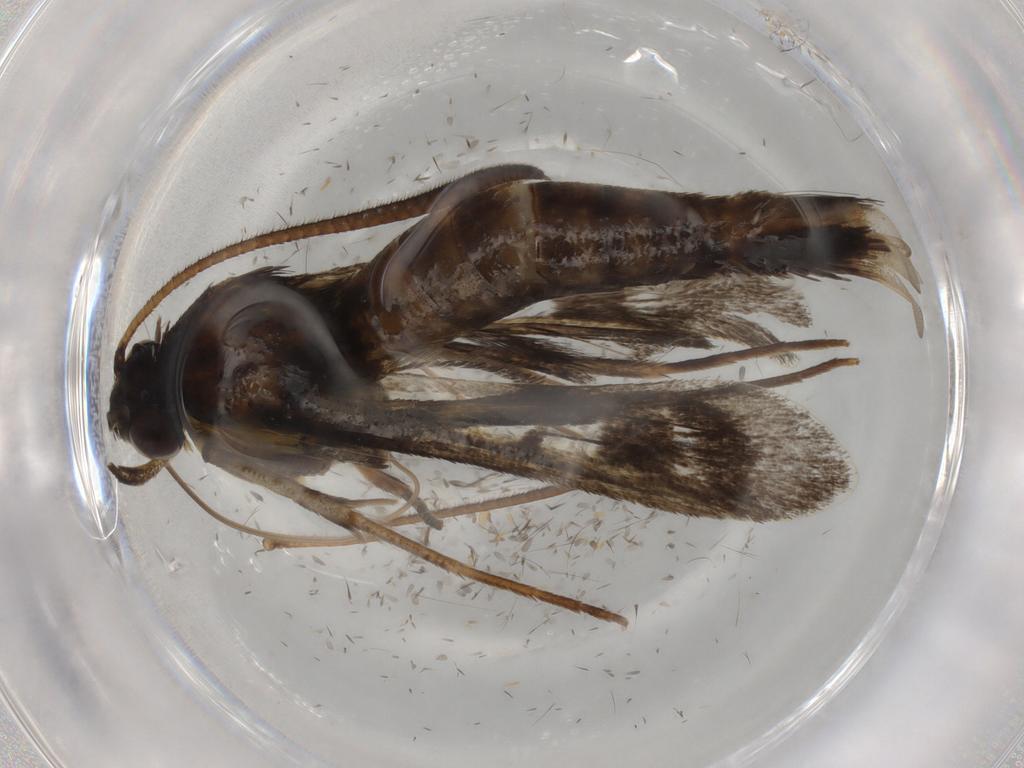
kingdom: Animalia
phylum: Arthropoda
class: Insecta
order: Lepidoptera
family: Sesiidae
